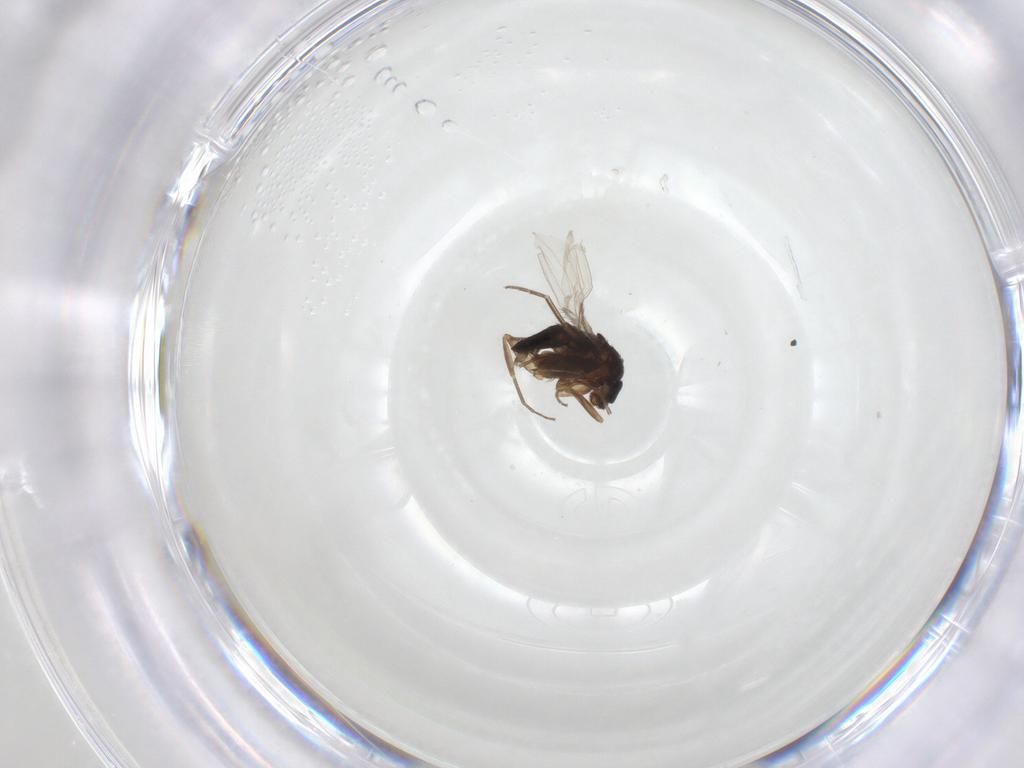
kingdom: Animalia
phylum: Arthropoda
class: Insecta
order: Diptera
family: Phoridae
